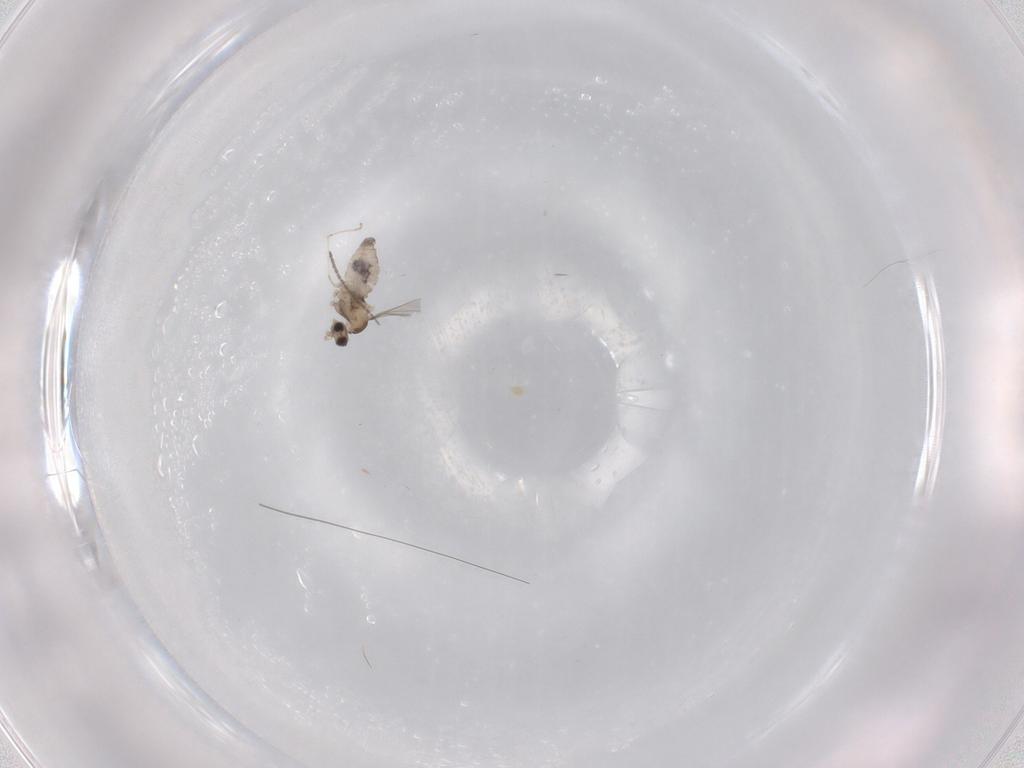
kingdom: Animalia
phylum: Arthropoda
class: Insecta
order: Diptera
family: Cecidomyiidae
